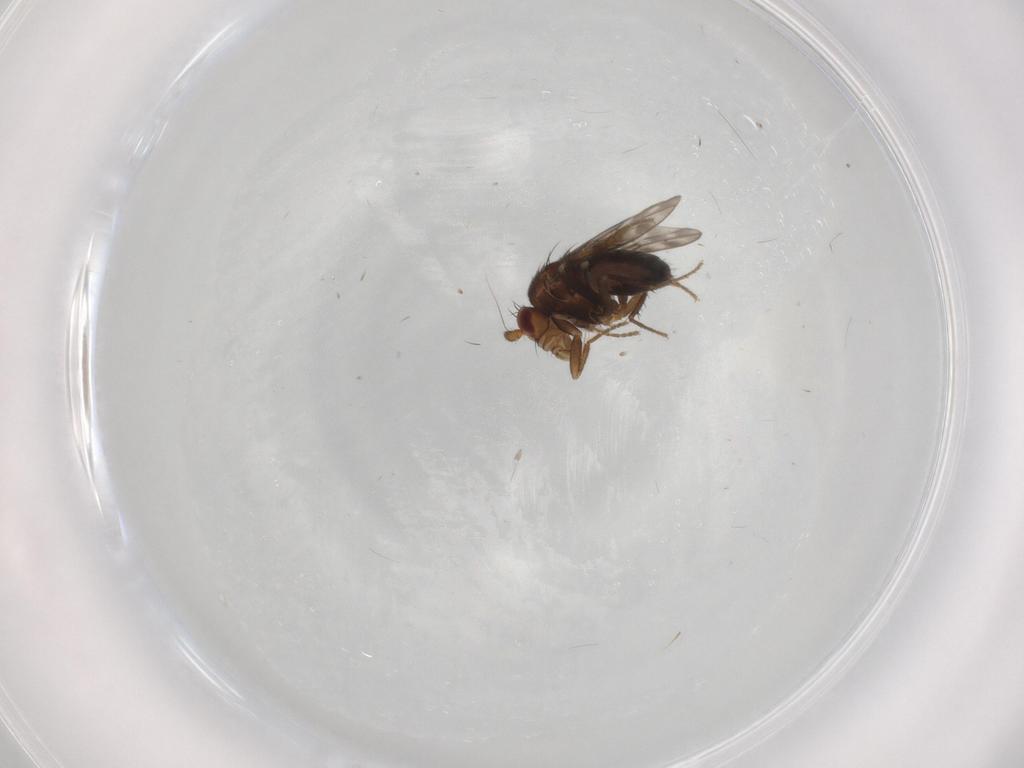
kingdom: Animalia
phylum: Arthropoda
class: Insecta
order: Diptera
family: Sphaeroceridae
